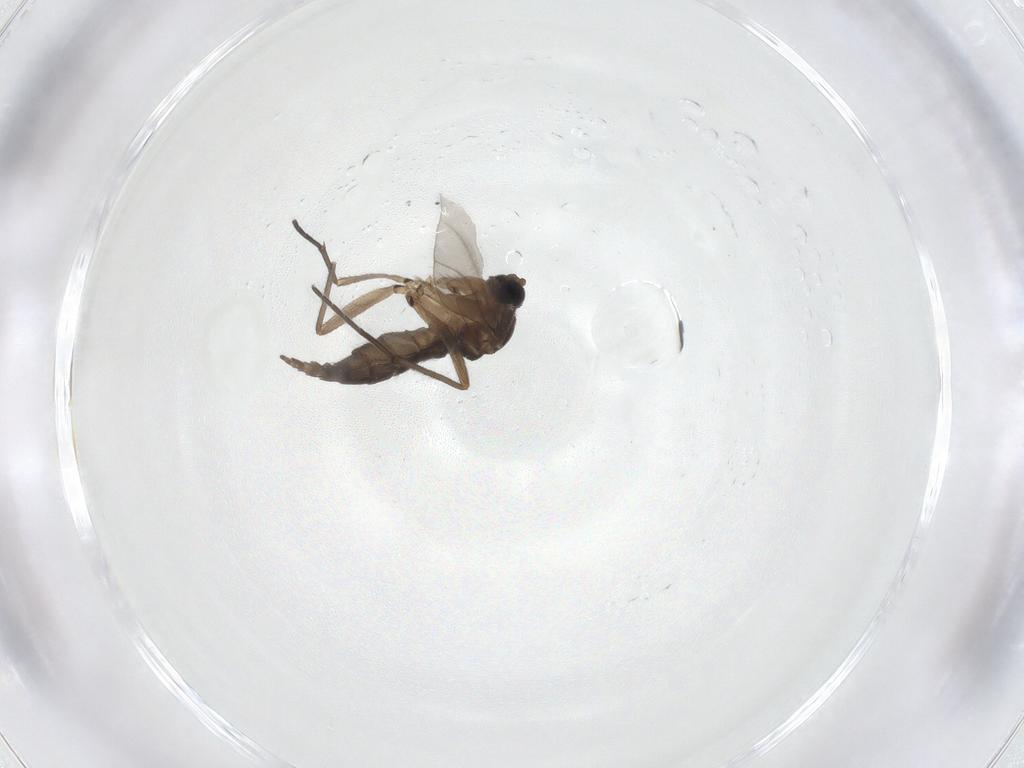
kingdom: Animalia
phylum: Arthropoda
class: Insecta
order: Diptera
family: Sciaridae
